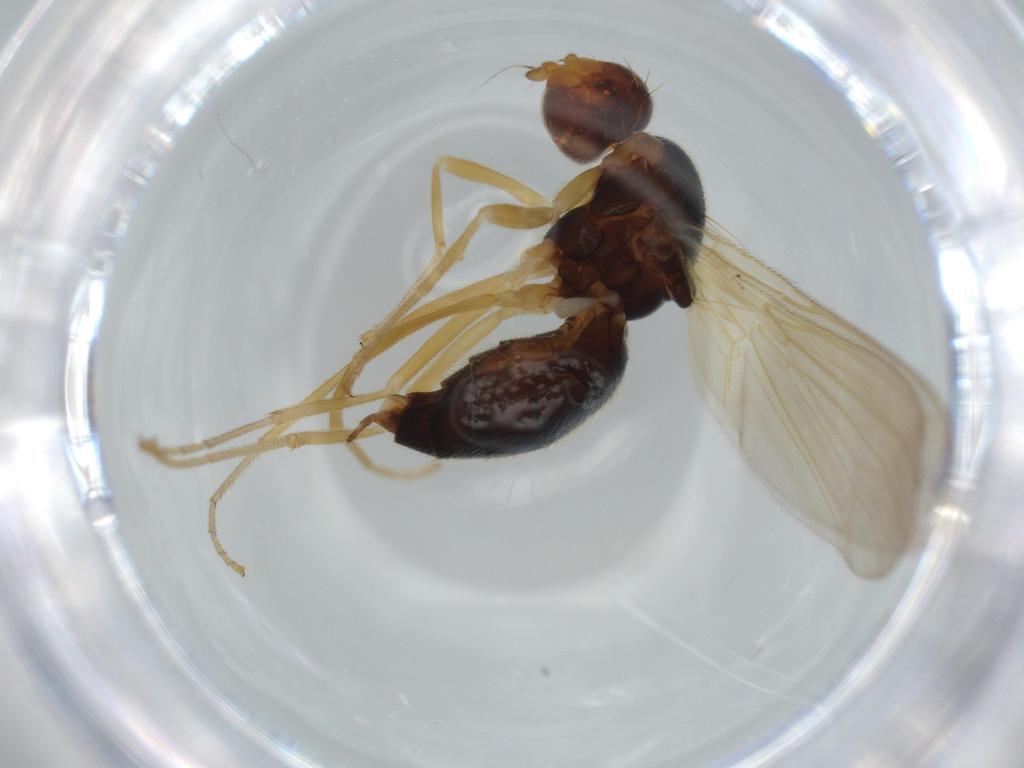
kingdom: Animalia
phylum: Arthropoda
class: Insecta
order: Diptera
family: Psilidae
